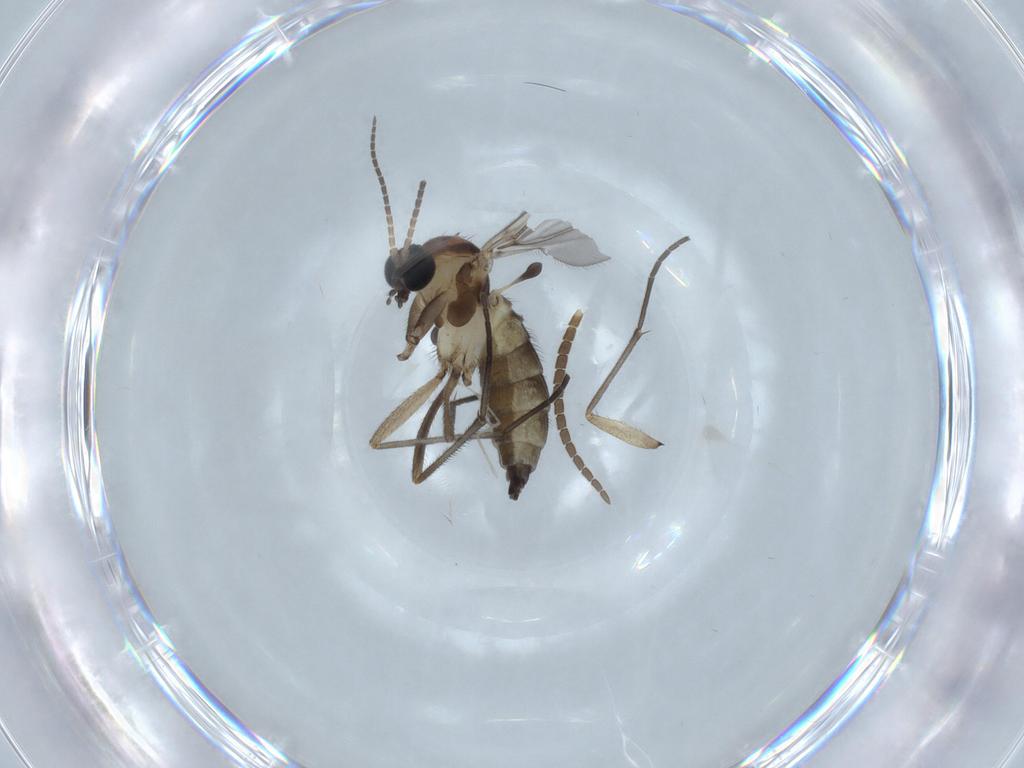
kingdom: Animalia
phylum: Arthropoda
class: Insecta
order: Diptera
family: Sciaridae
